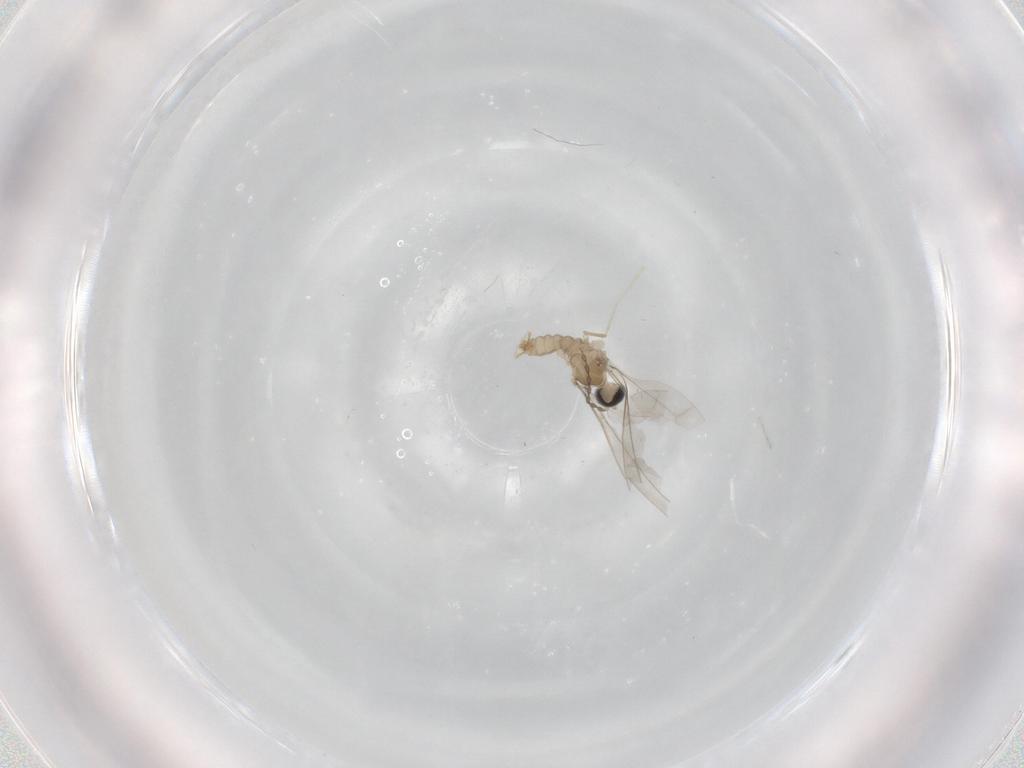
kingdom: Animalia
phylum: Arthropoda
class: Insecta
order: Diptera
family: Cecidomyiidae
